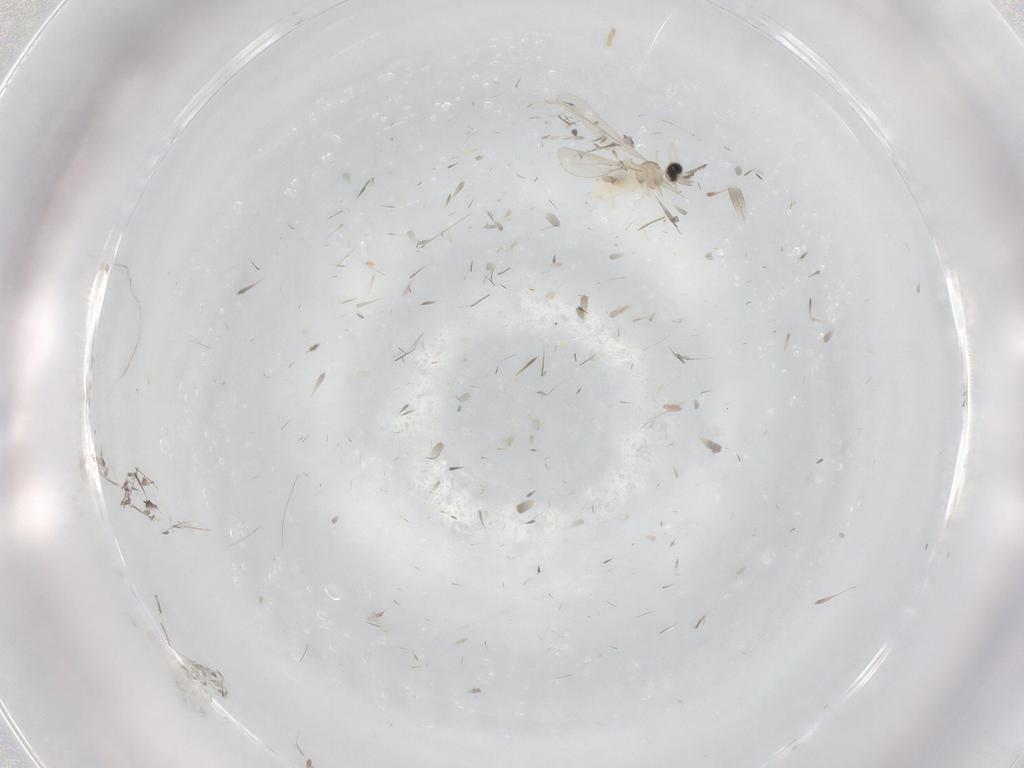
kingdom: Animalia
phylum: Arthropoda
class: Insecta
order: Diptera
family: Cecidomyiidae
